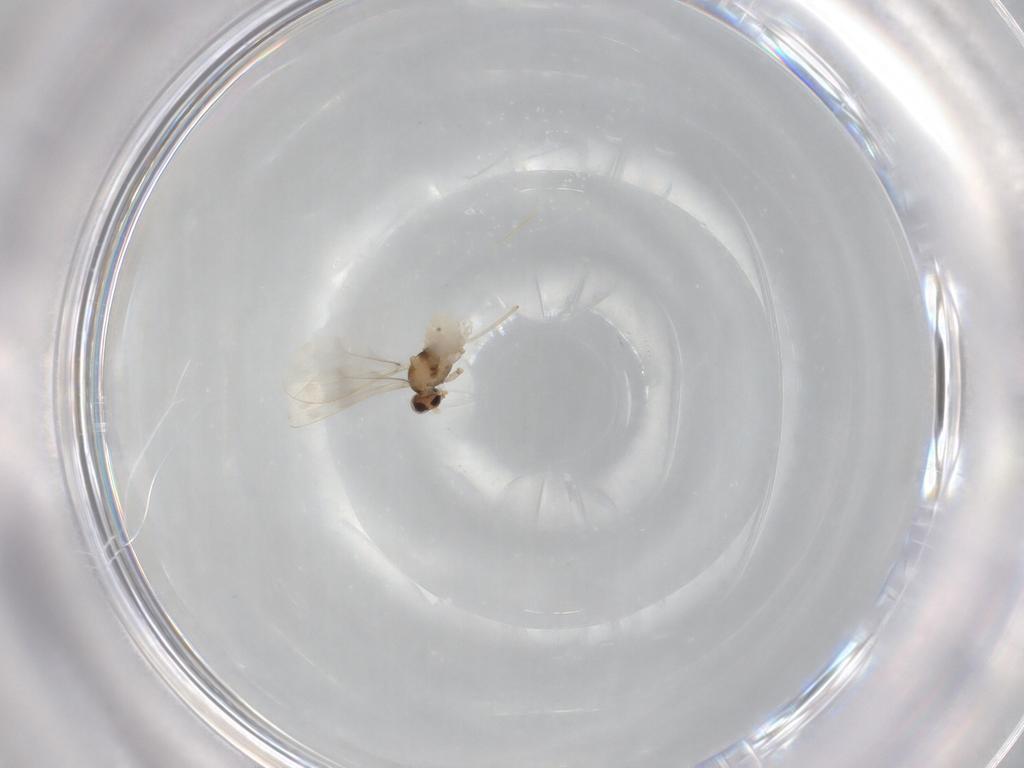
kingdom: Animalia
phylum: Arthropoda
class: Insecta
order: Diptera
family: Cecidomyiidae
